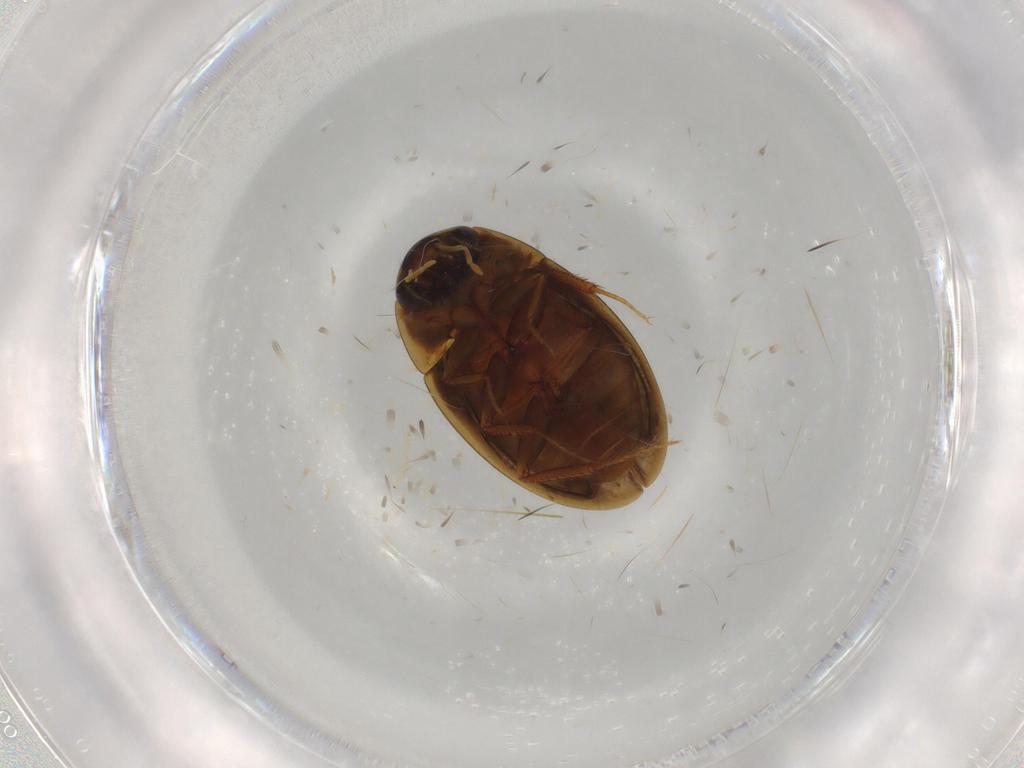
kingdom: Animalia
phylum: Arthropoda
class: Insecta
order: Coleoptera
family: Hydrophilidae
